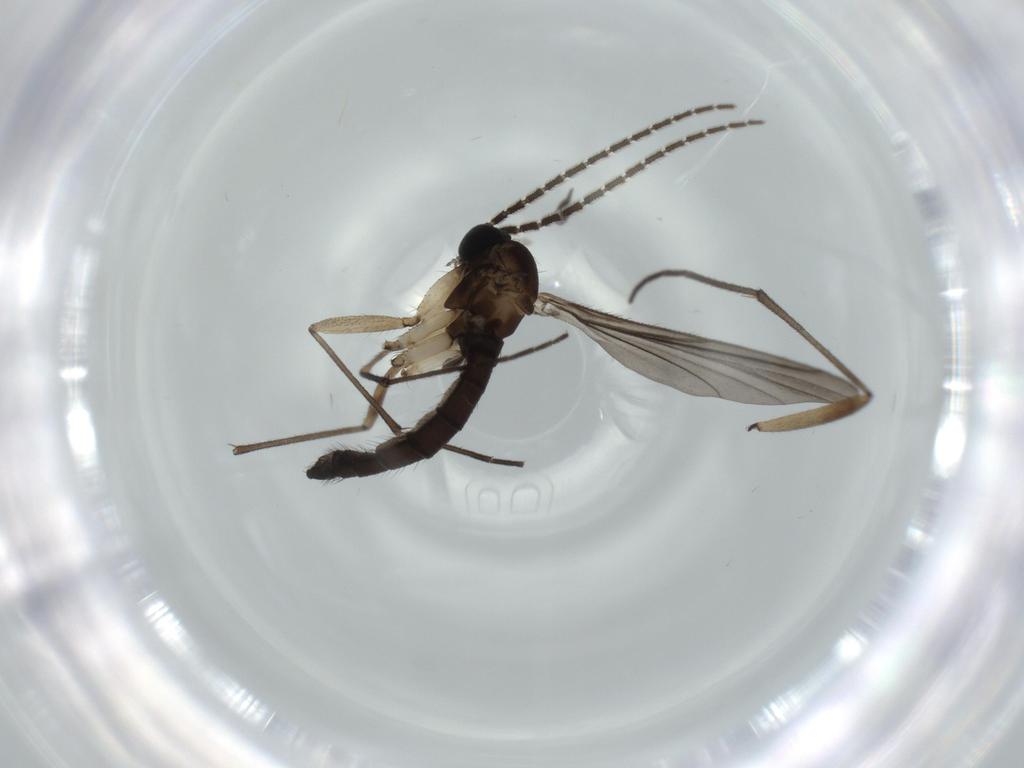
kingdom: Animalia
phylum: Arthropoda
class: Insecta
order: Diptera
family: Sciaridae
